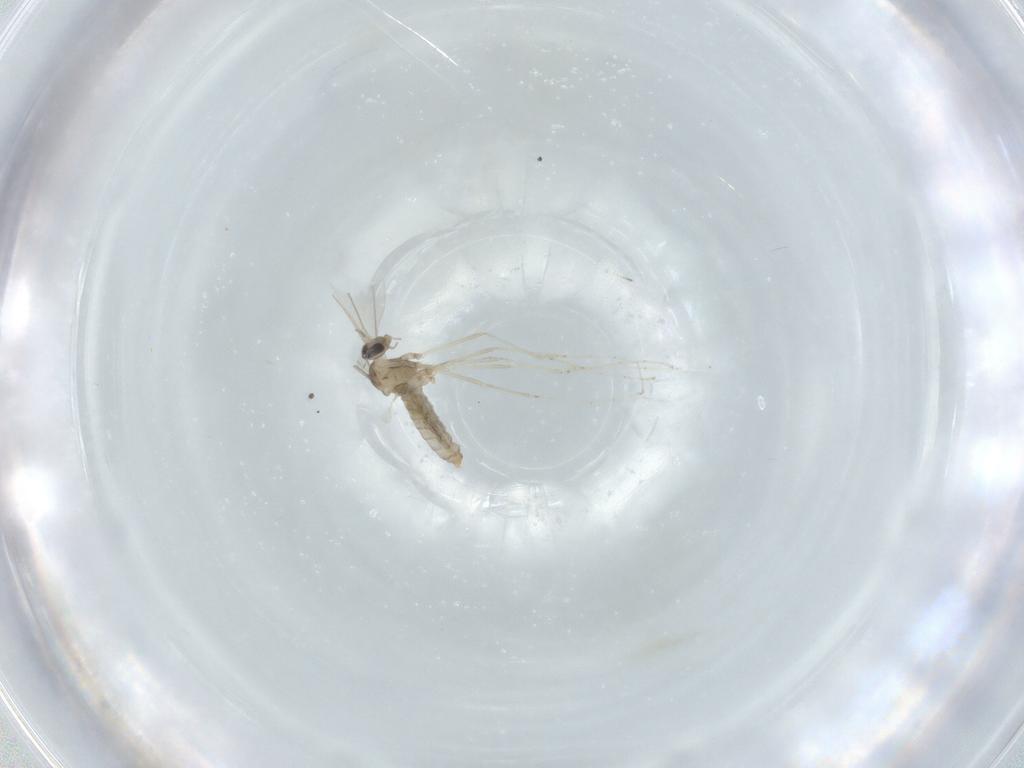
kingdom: Animalia
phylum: Arthropoda
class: Insecta
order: Diptera
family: Cecidomyiidae
